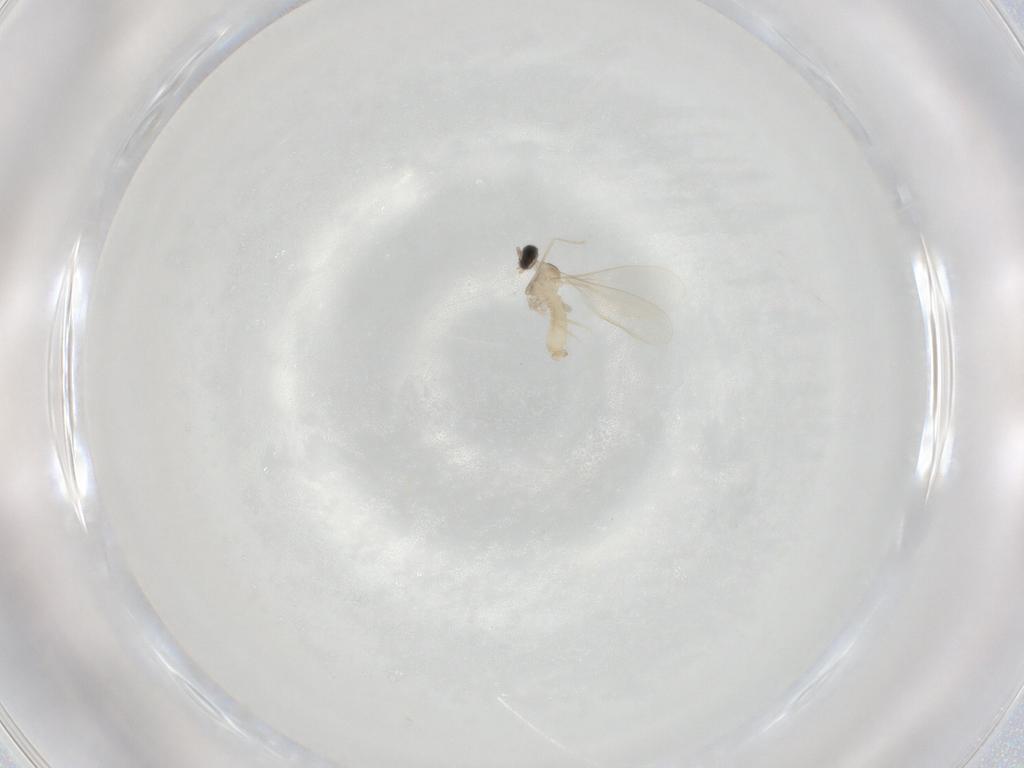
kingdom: Animalia
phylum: Arthropoda
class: Insecta
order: Diptera
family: Cecidomyiidae
